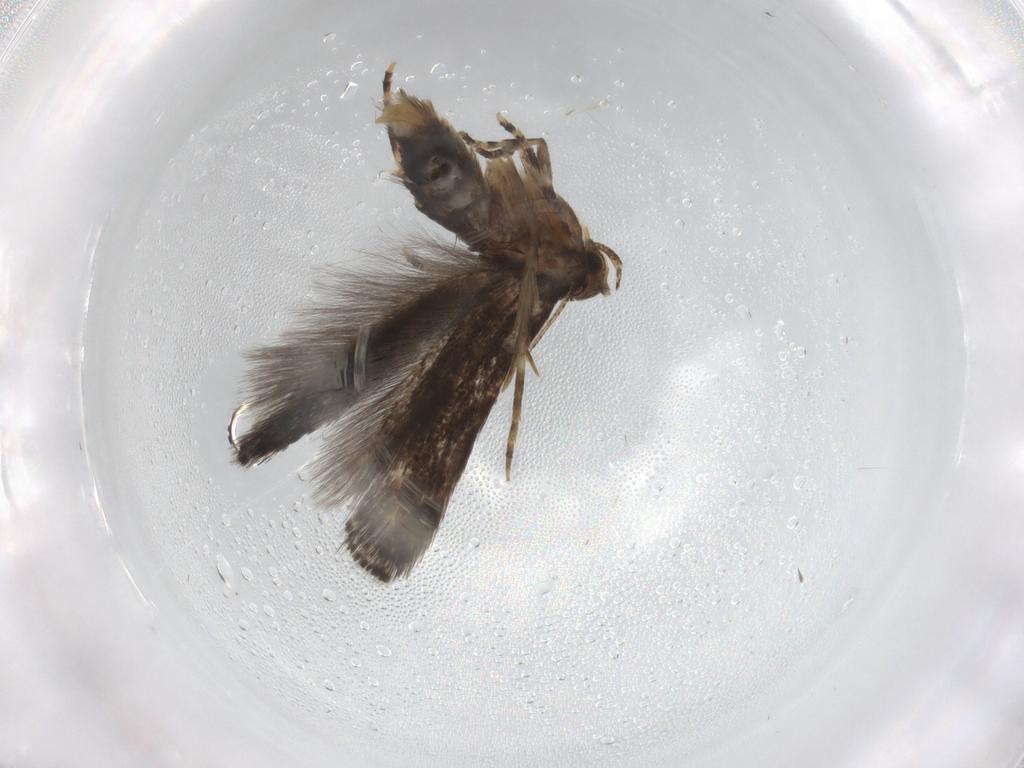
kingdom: Animalia
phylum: Arthropoda
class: Insecta
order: Lepidoptera
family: Elachistidae
